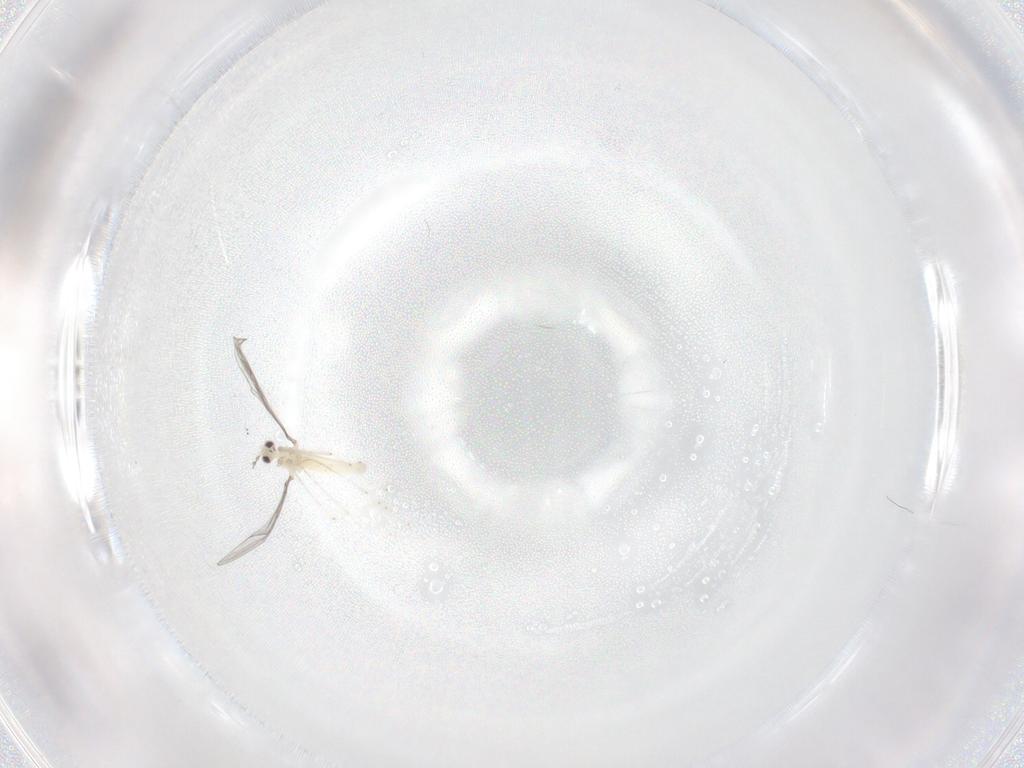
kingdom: Animalia
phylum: Arthropoda
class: Insecta
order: Diptera
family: Cecidomyiidae
